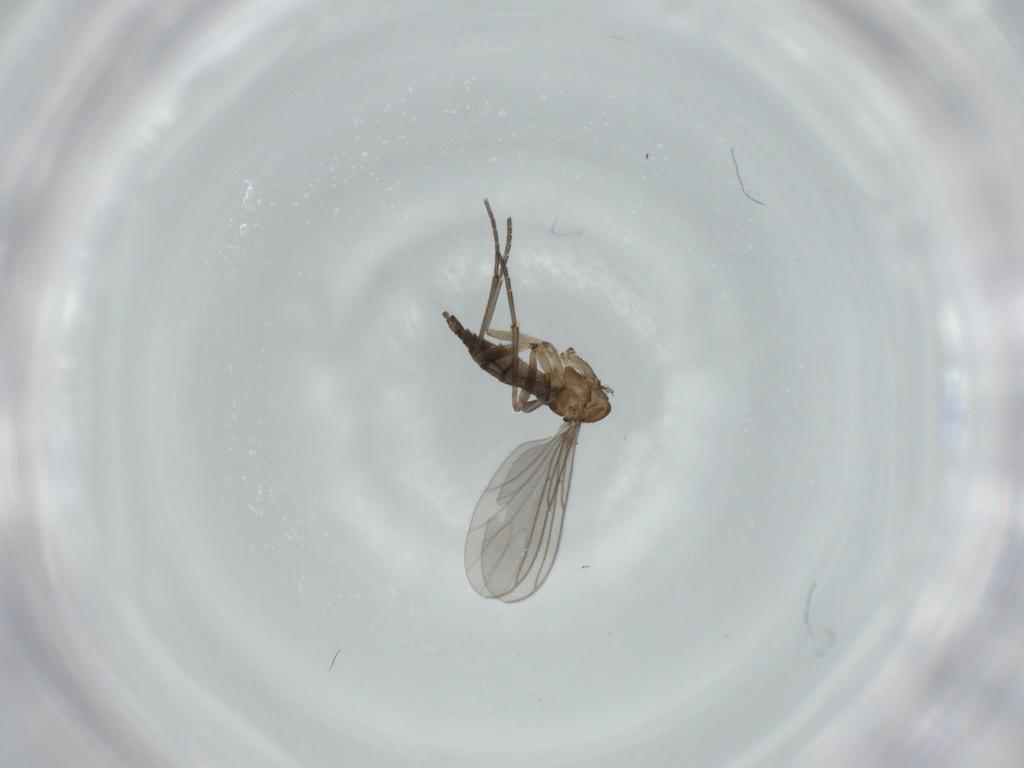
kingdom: Animalia
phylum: Arthropoda
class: Insecta
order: Diptera
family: Sciaridae
